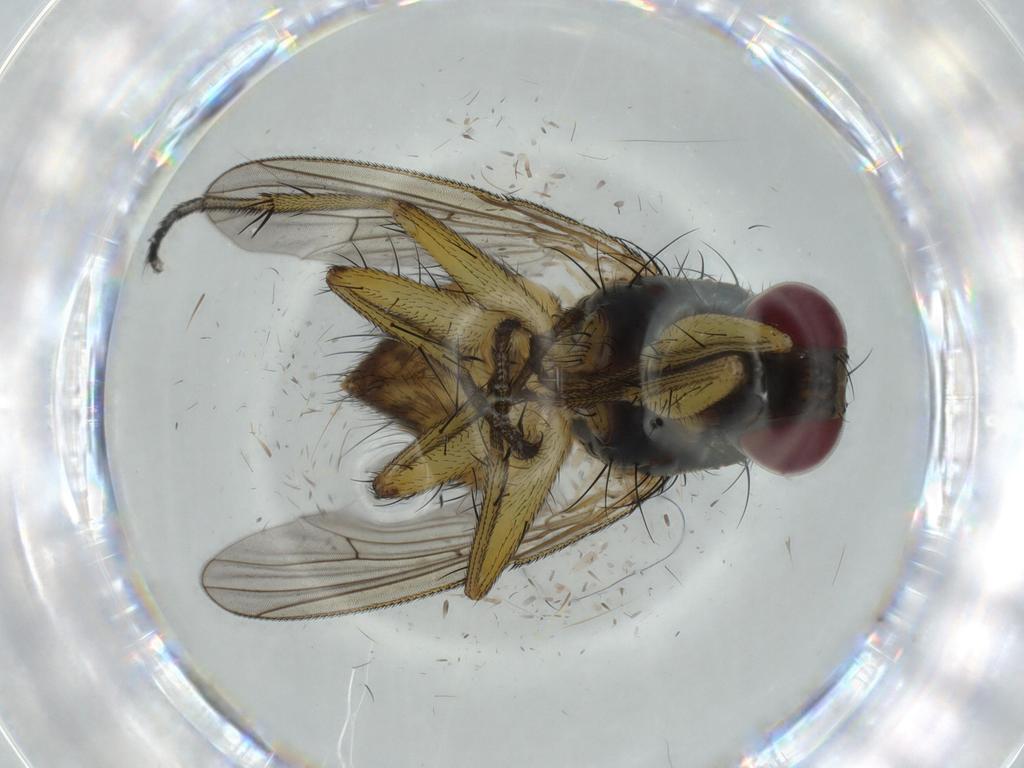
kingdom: Animalia
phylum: Arthropoda
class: Insecta
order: Diptera
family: Muscidae
